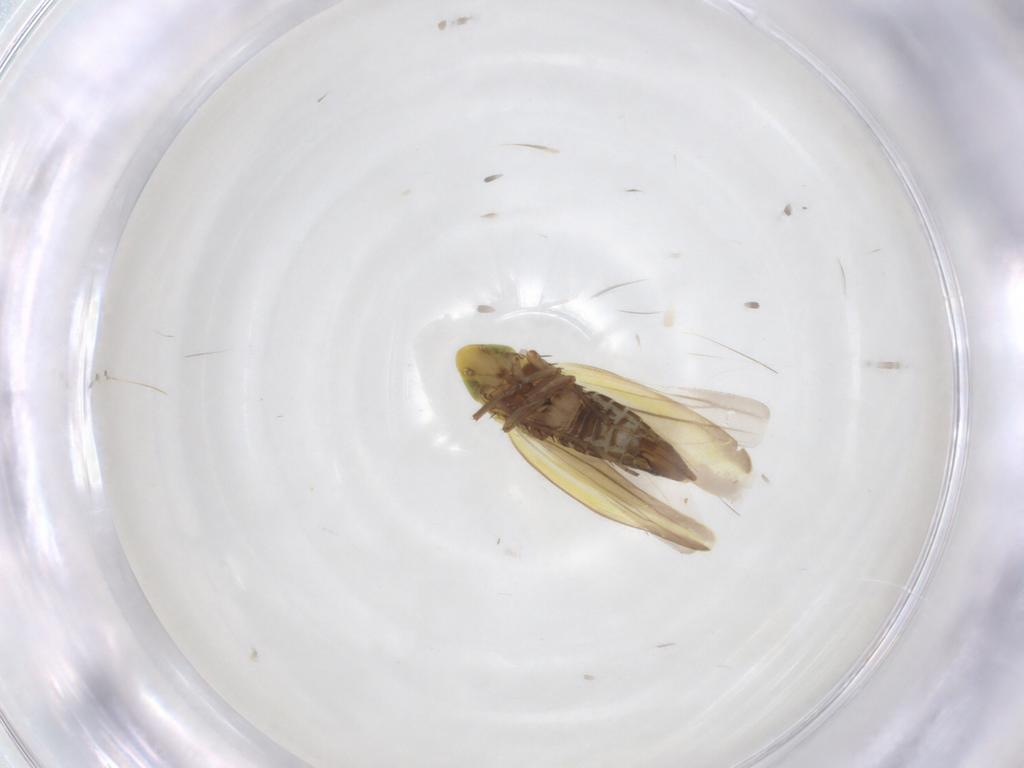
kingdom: Animalia
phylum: Arthropoda
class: Insecta
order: Hemiptera
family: Cicadellidae
